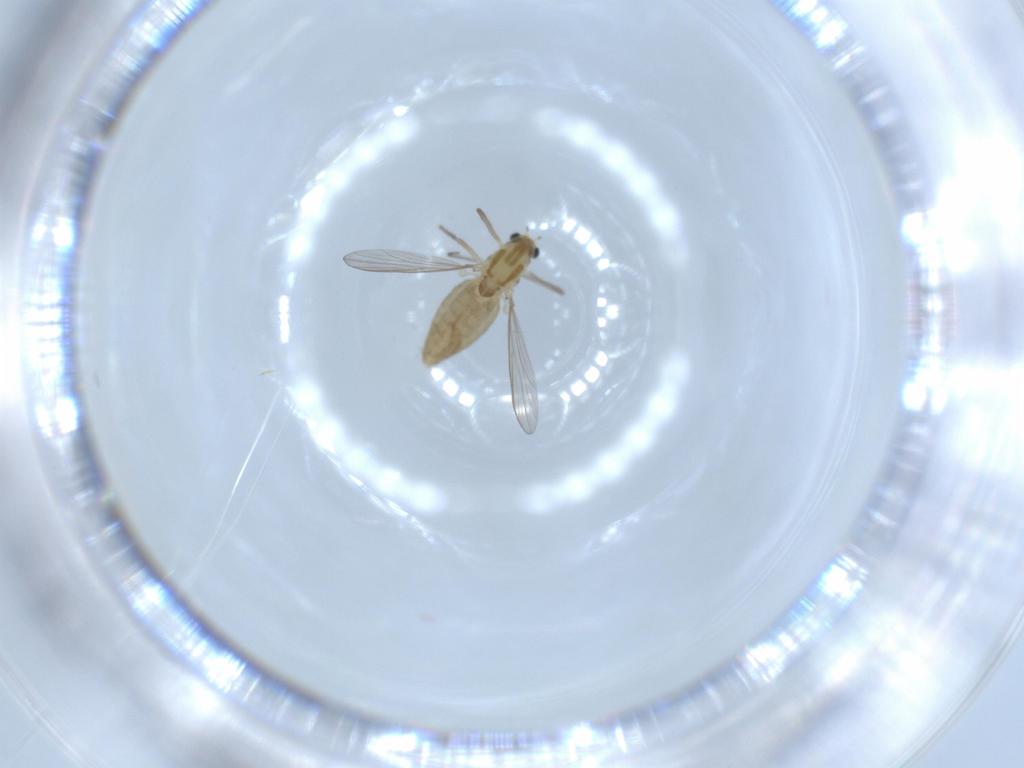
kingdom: Animalia
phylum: Arthropoda
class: Insecta
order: Diptera
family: Chironomidae
